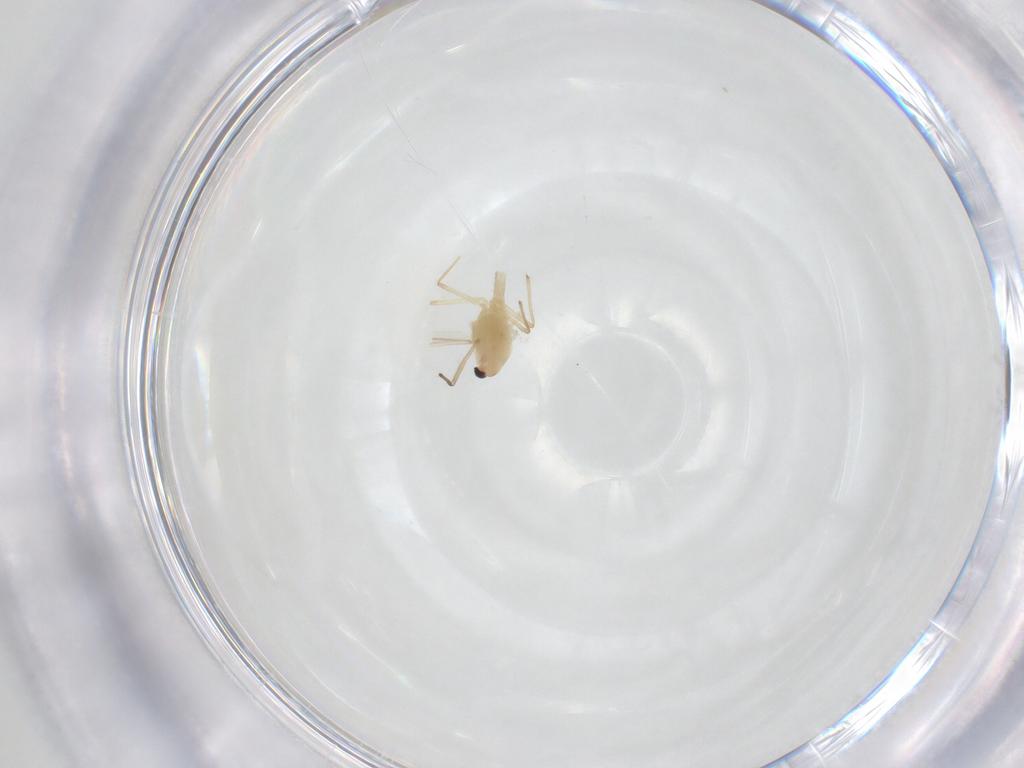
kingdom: Animalia
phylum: Arthropoda
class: Insecta
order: Diptera
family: Chironomidae
